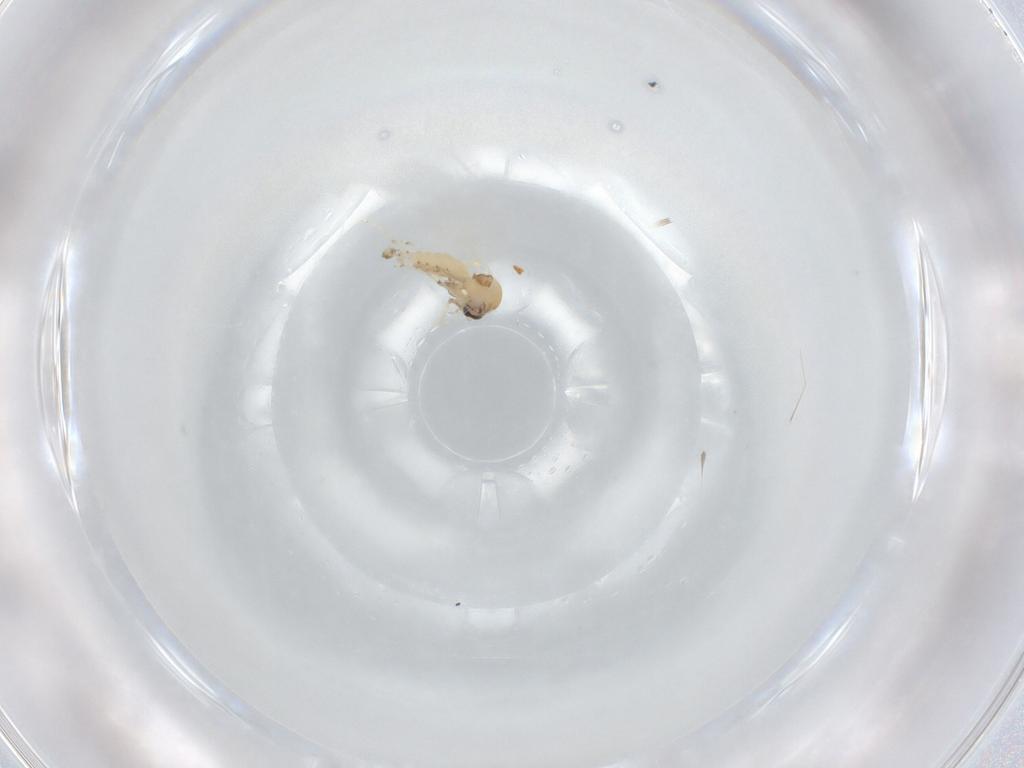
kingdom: Animalia
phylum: Arthropoda
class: Insecta
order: Diptera
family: Ceratopogonidae
